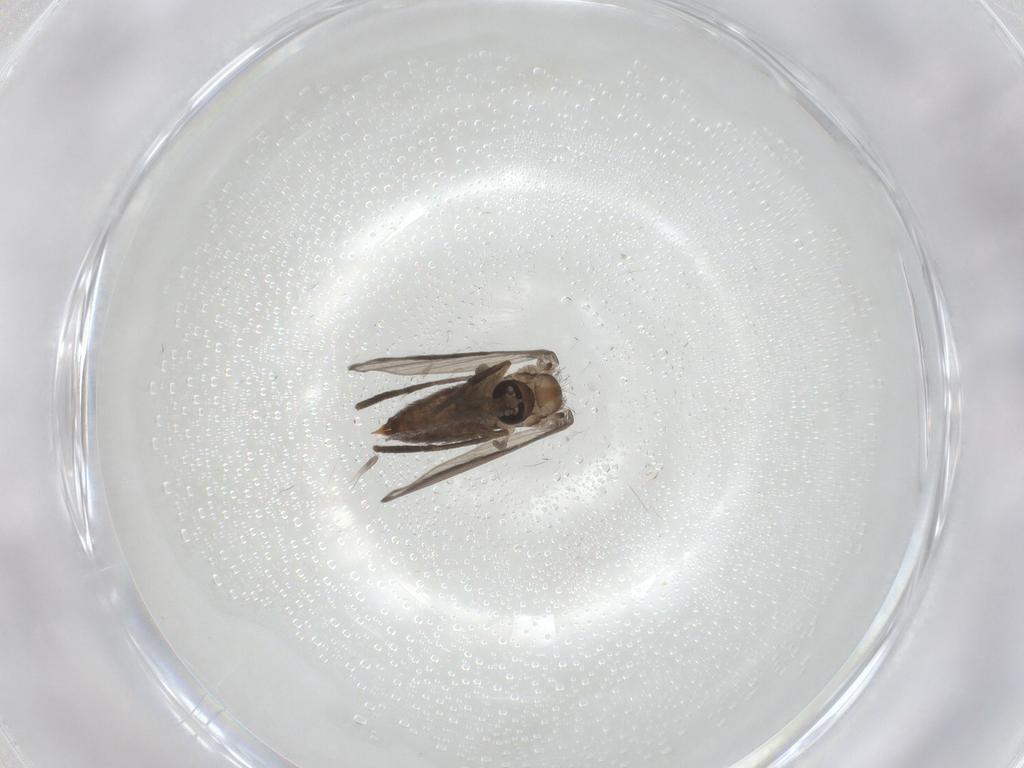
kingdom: Animalia
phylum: Arthropoda
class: Insecta
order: Diptera
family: Psychodidae
